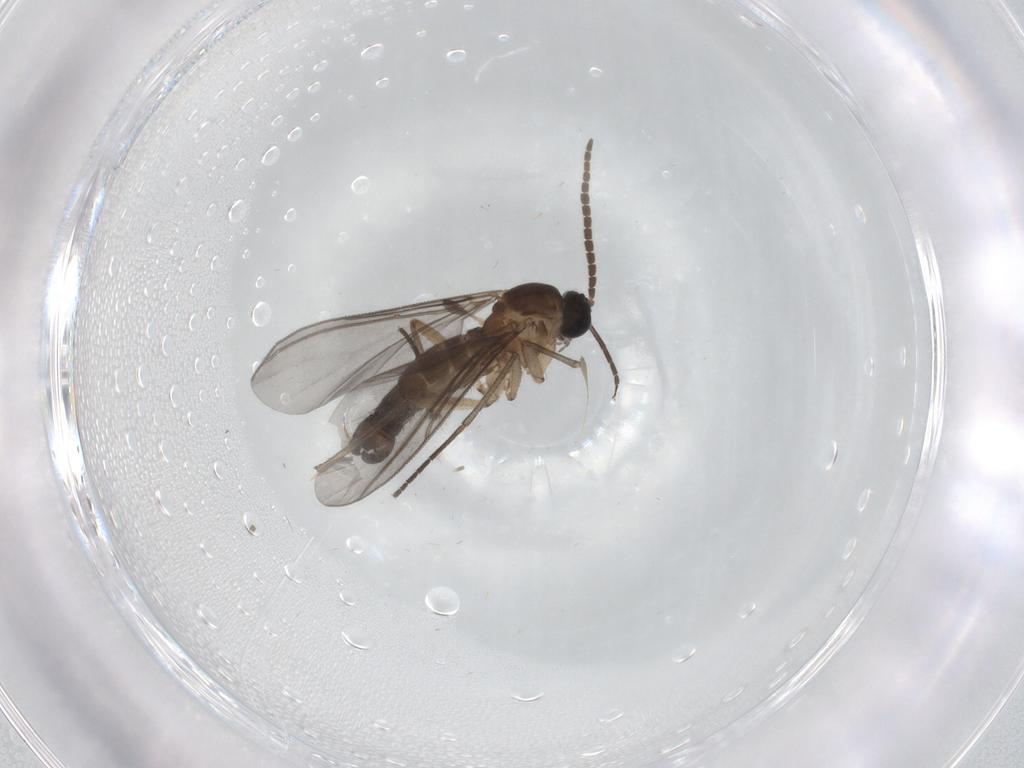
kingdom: Animalia
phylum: Arthropoda
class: Insecta
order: Diptera
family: Cecidomyiidae
